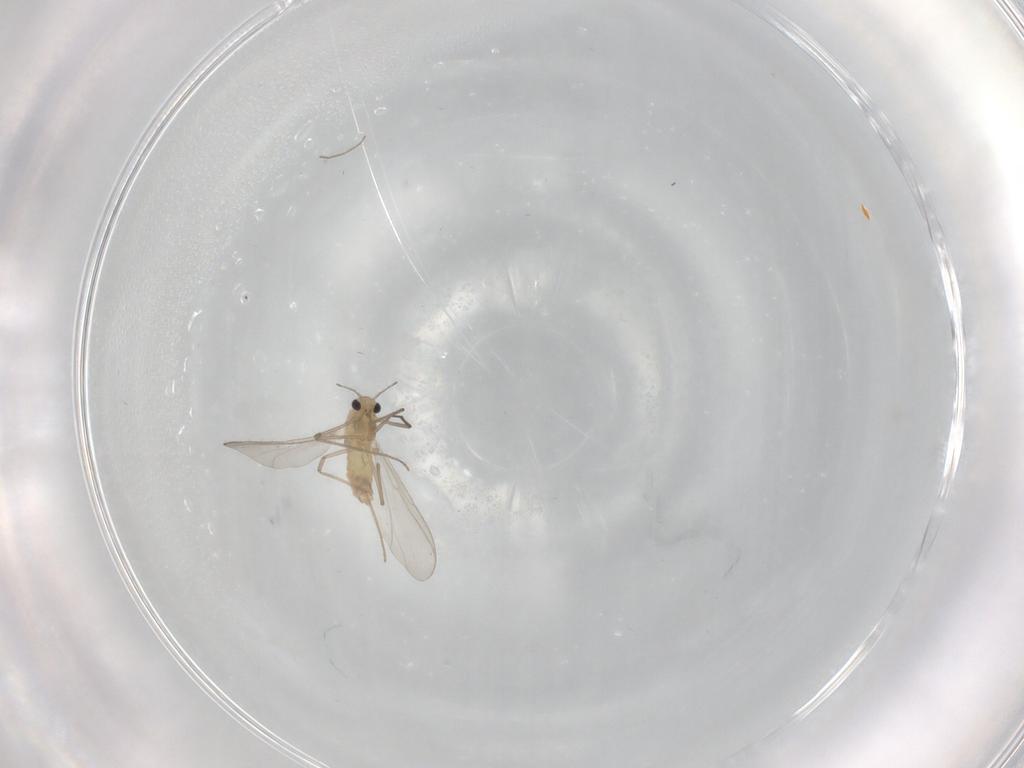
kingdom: Animalia
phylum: Arthropoda
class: Insecta
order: Diptera
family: Chironomidae
